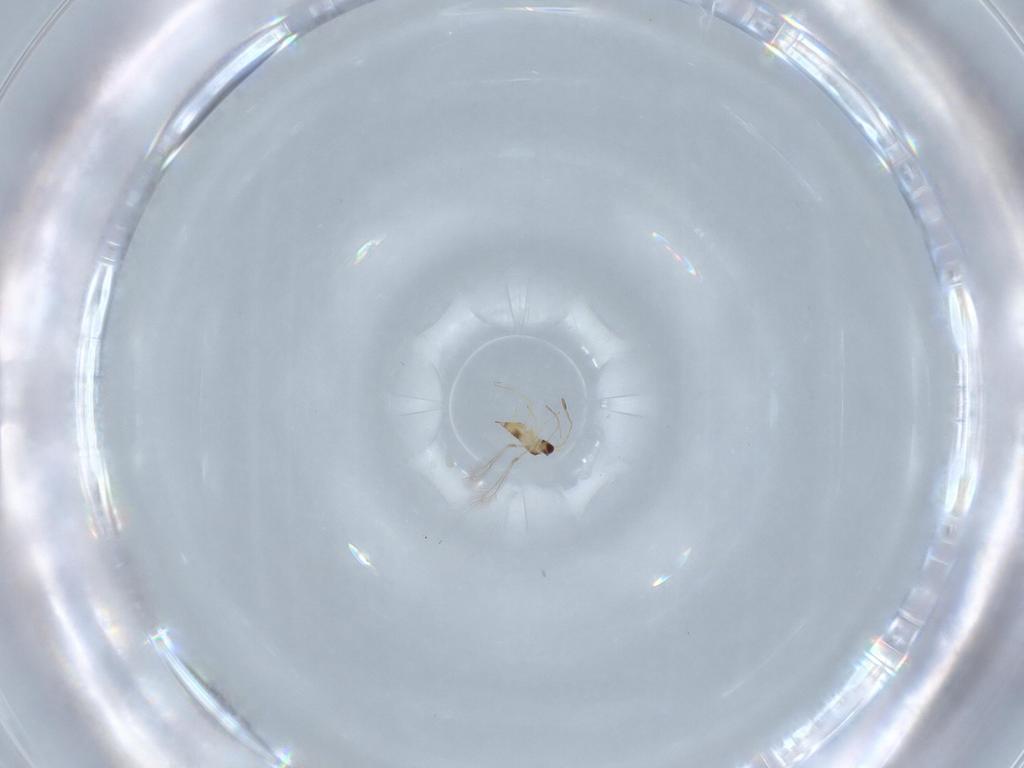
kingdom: Animalia
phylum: Arthropoda
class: Insecta
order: Hymenoptera
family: Mymaridae
